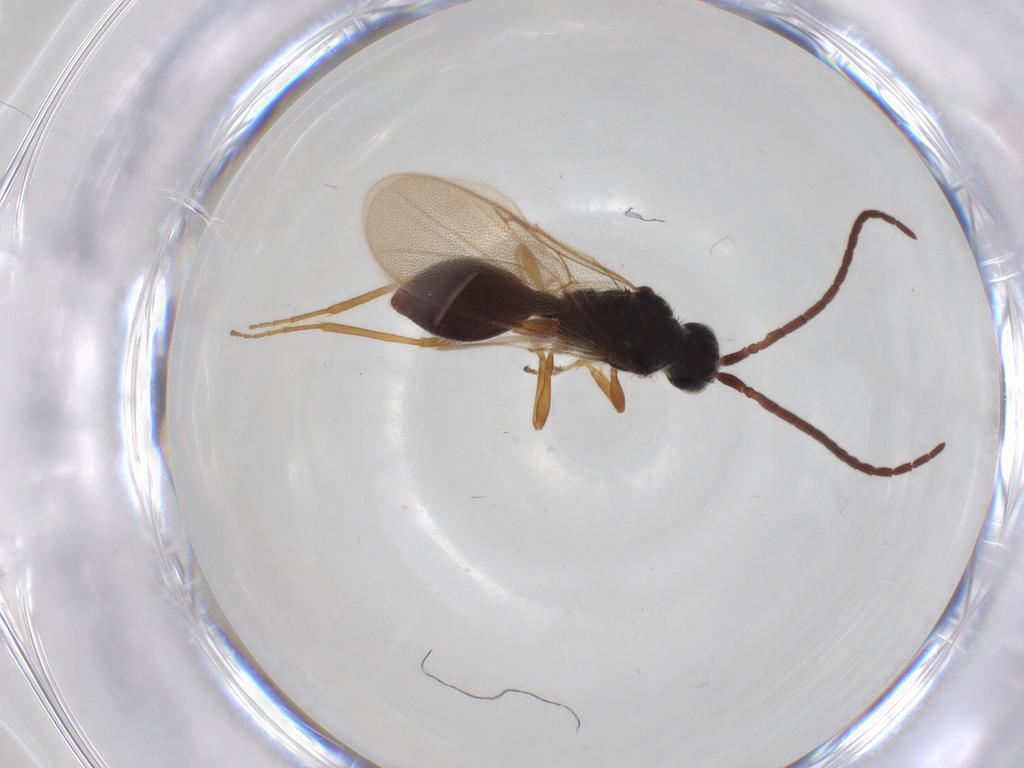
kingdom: Animalia
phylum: Arthropoda
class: Insecta
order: Hymenoptera
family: Diapriidae
